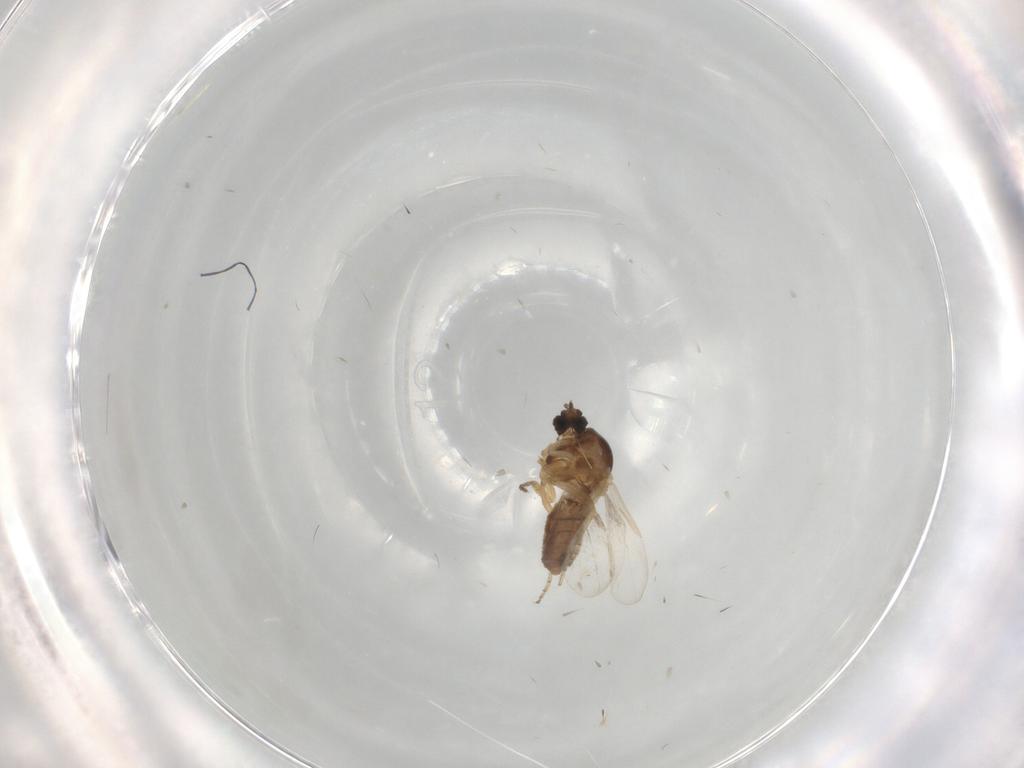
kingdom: Animalia
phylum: Arthropoda
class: Insecta
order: Diptera
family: Ceratopogonidae
